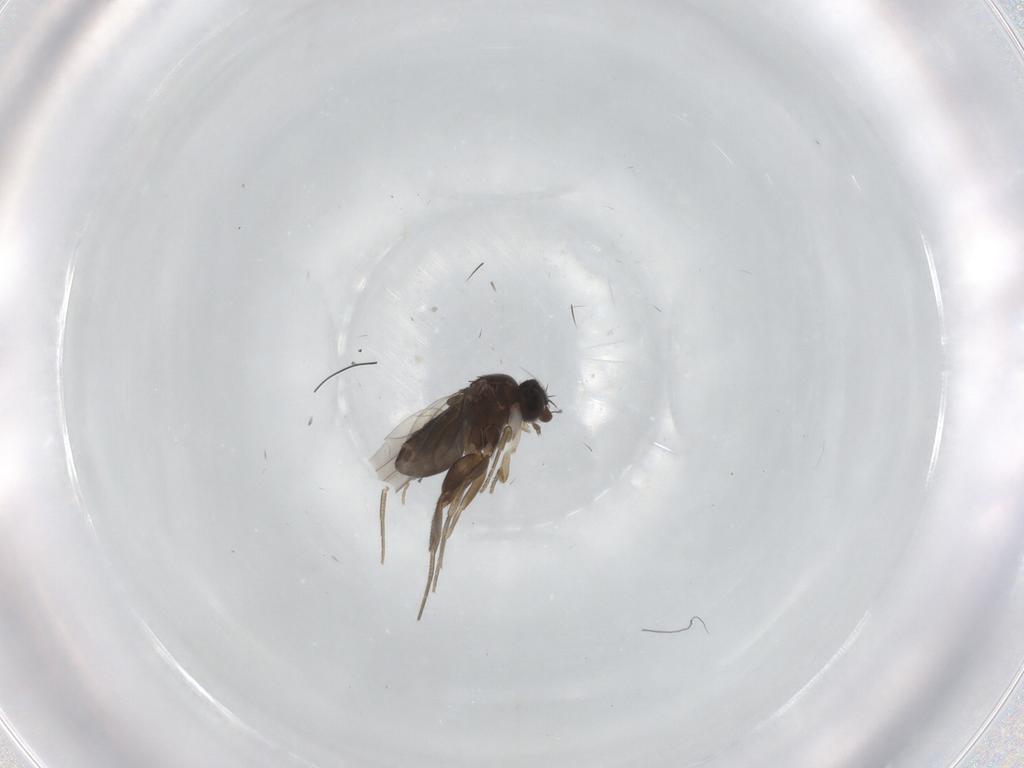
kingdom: Animalia
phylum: Arthropoda
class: Insecta
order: Diptera
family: Phoridae
